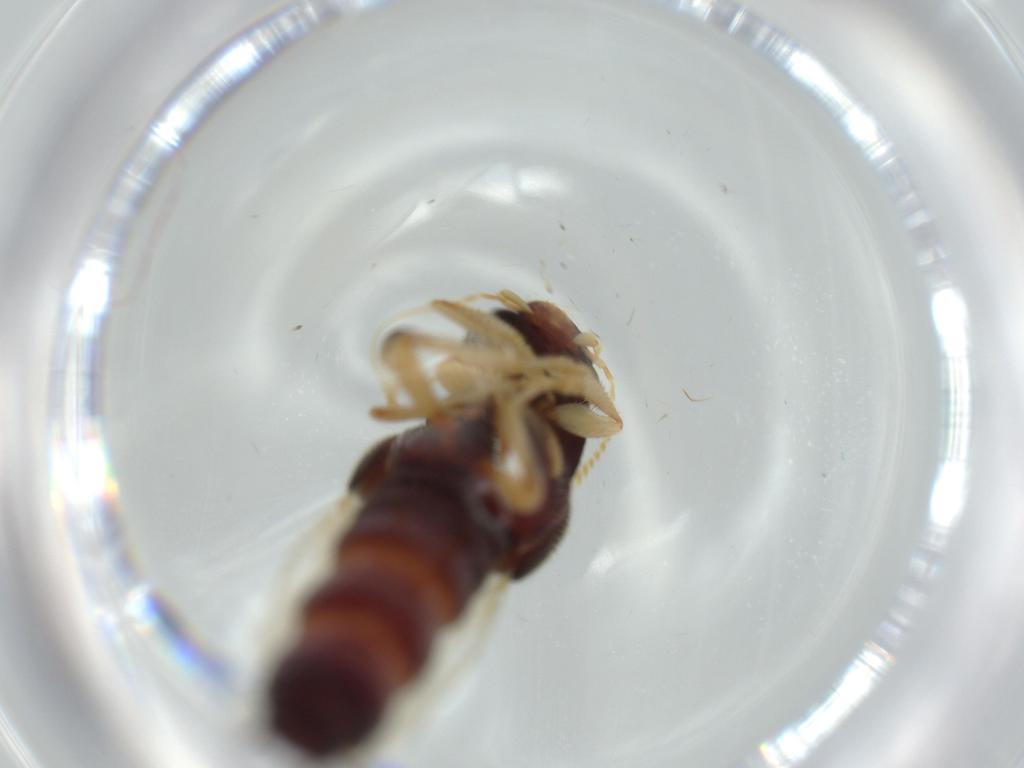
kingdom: Animalia
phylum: Arthropoda
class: Insecta
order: Coleoptera
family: Staphylinidae
